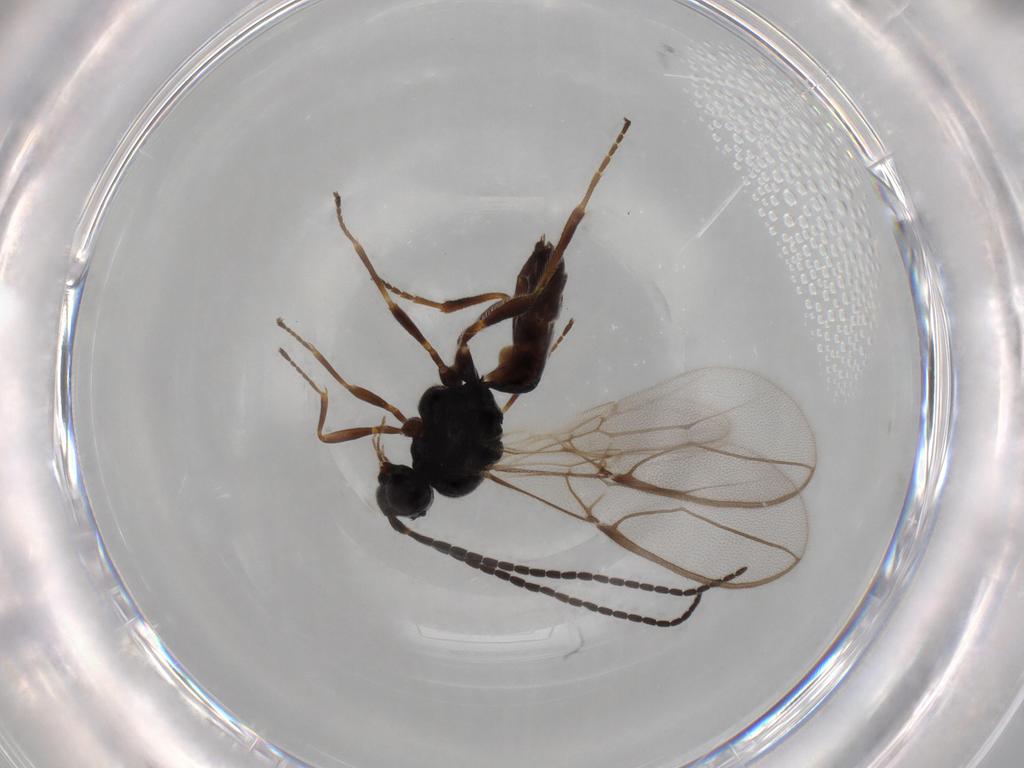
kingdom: Animalia
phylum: Arthropoda
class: Insecta
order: Hymenoptera
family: Braconidae
